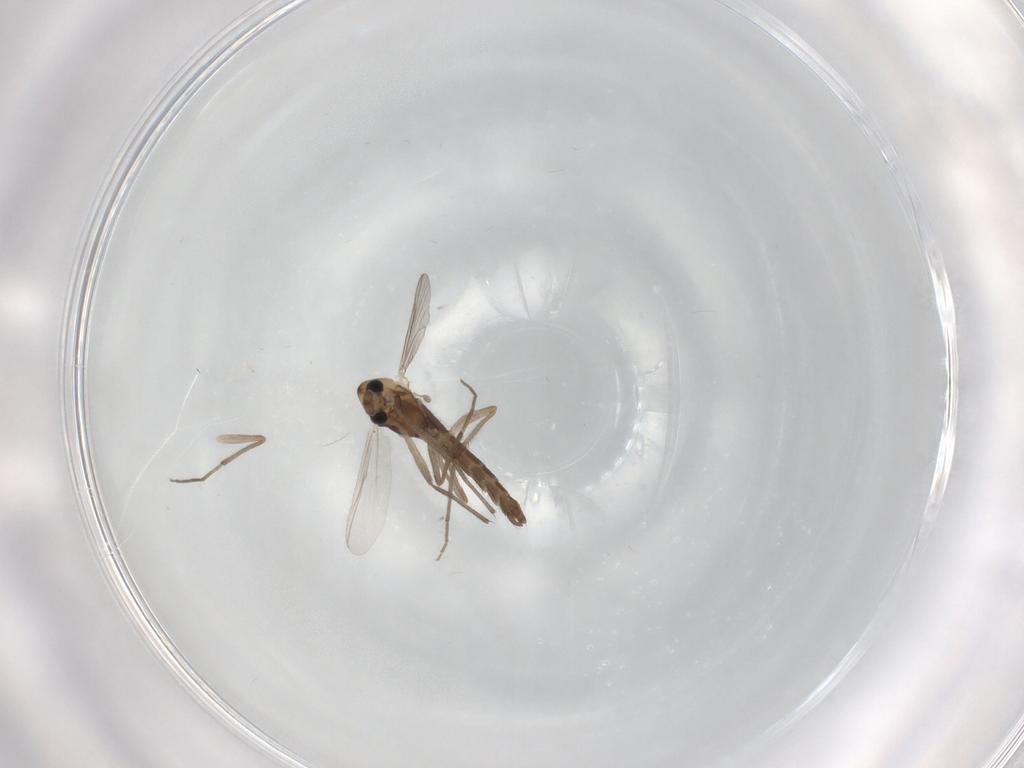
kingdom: Animalia
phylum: Arthropoda
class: Insecta
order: Diptera
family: Chironomidae
